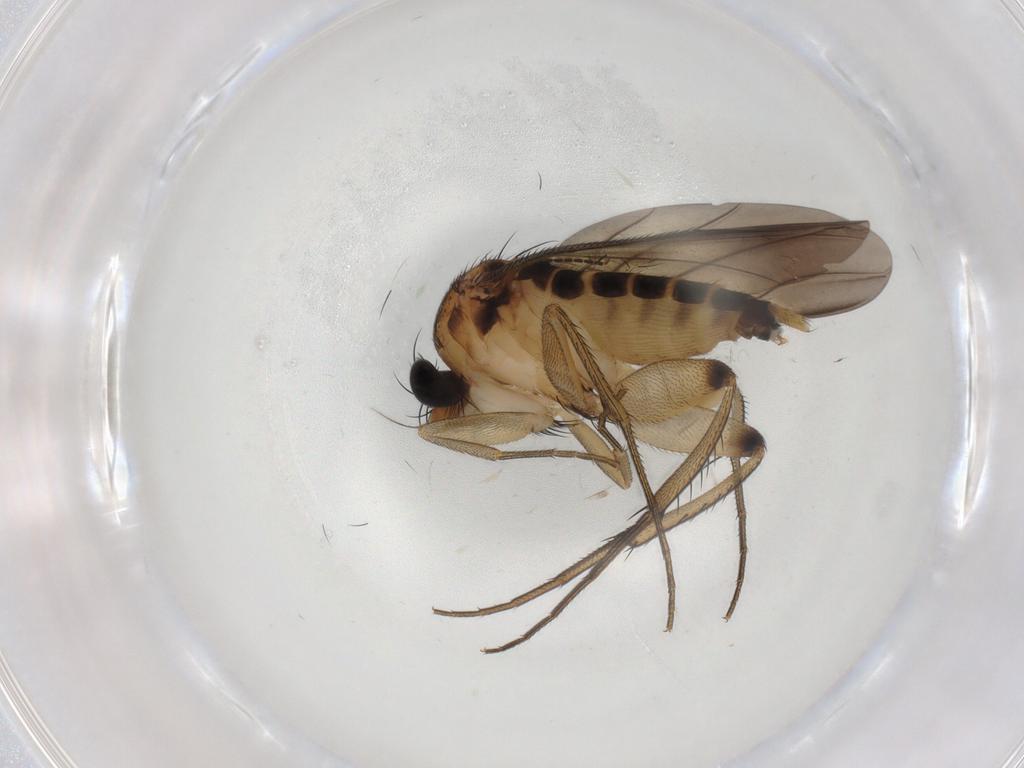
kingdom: Animalia
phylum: Arthropoda
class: Insecta
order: Diptera
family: Phoridae
